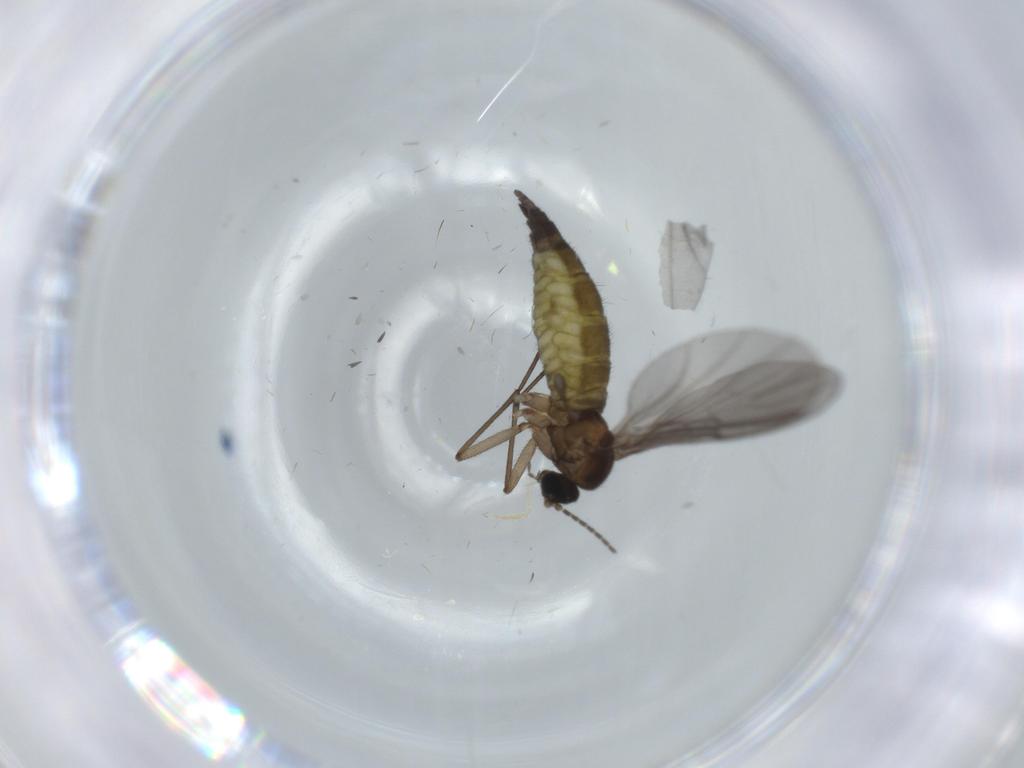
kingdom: Animalia
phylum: Arthropoda
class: Insecta
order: Diptera
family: Sciaridae
